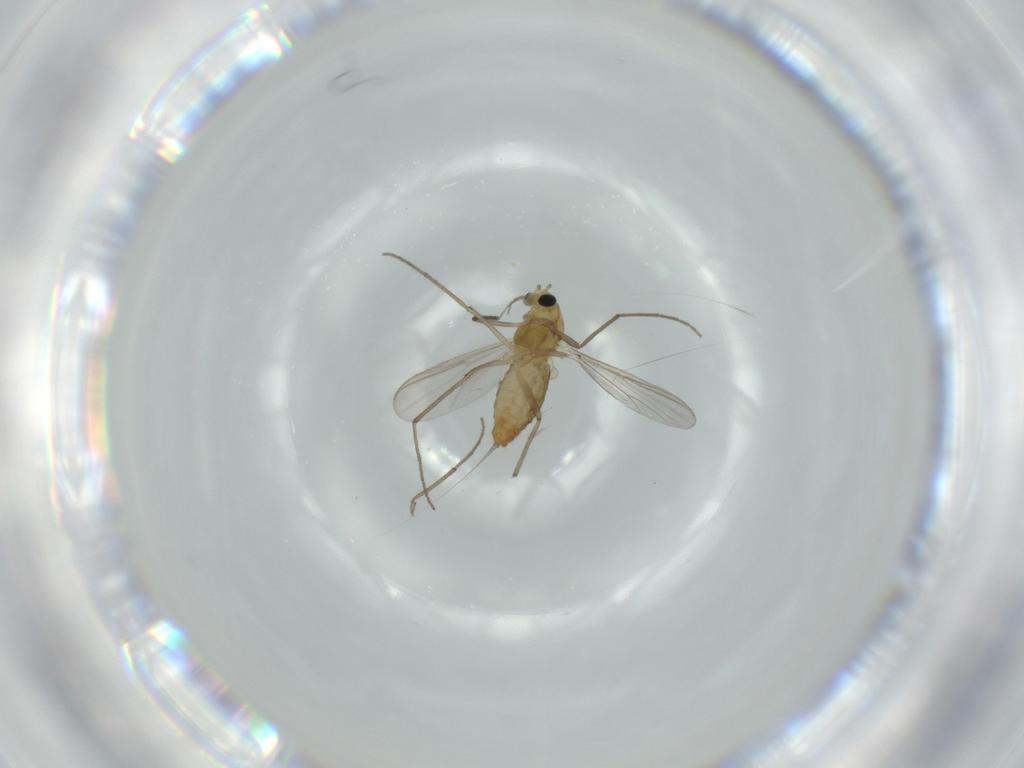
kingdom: Animalia
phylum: Arthropoda
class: Insecta
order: Diptera
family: Chironomidae
